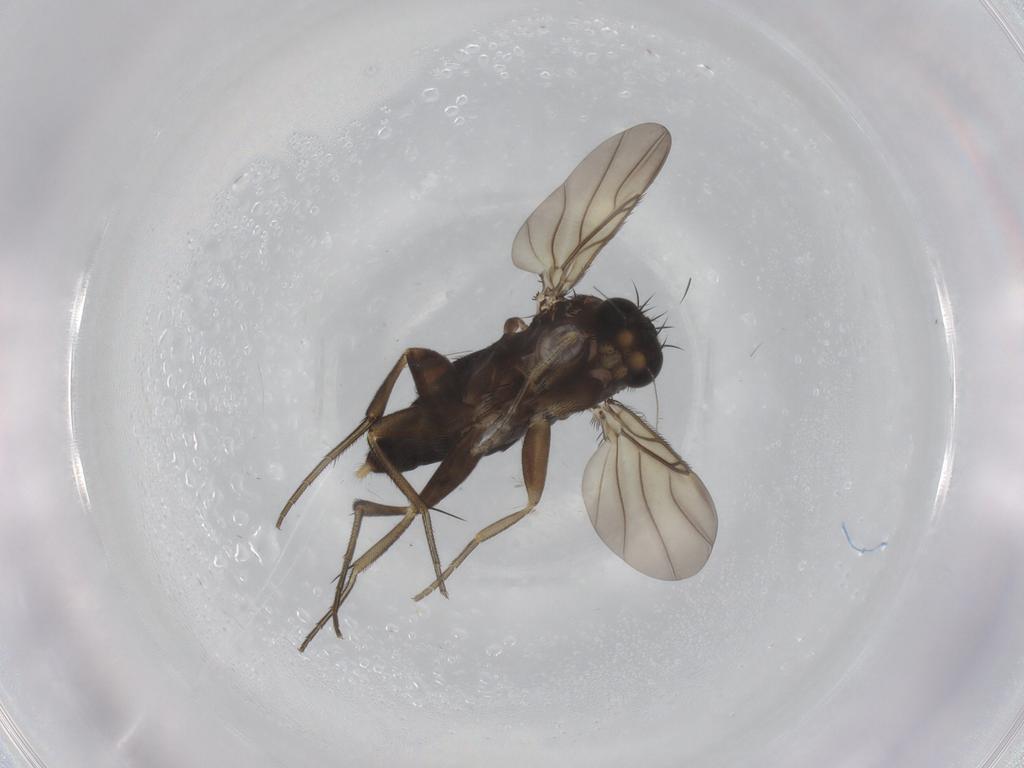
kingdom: Animalia
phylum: Arthropoda
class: Insecta
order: Diptera
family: Phoridae
